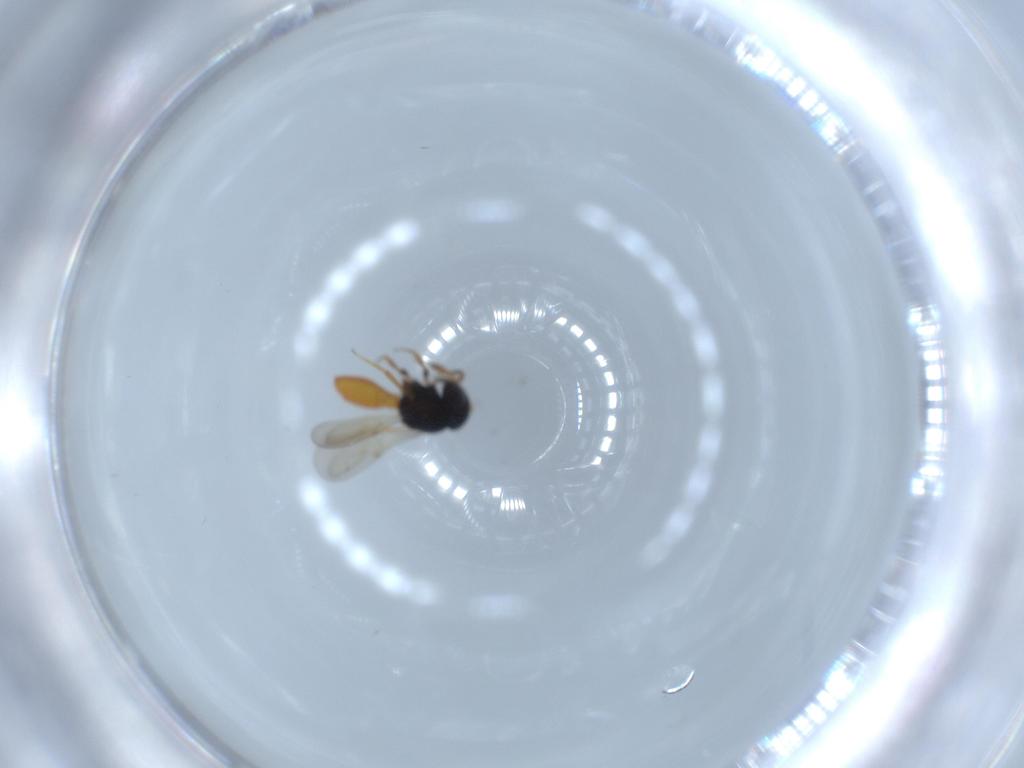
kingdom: Animalia
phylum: Arthropoda
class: Insecta
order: Hymenoptera
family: Scelionidae
